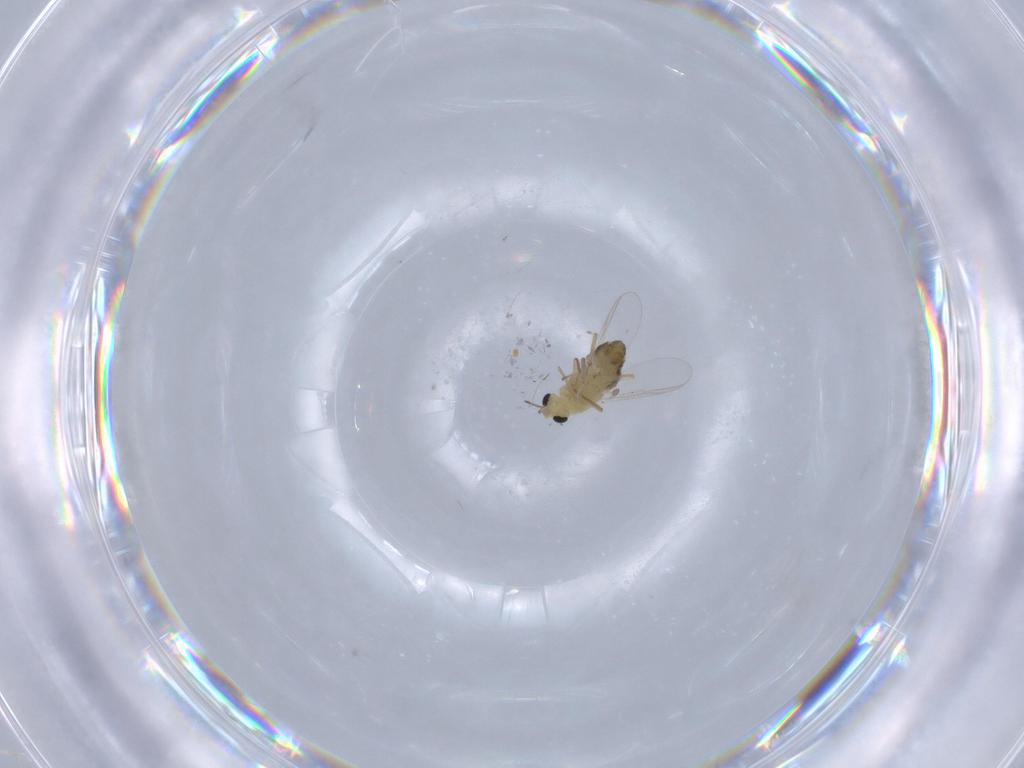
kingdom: Animalia
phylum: Arthropoda
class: Insecta
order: Diptera
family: Chironomidae
